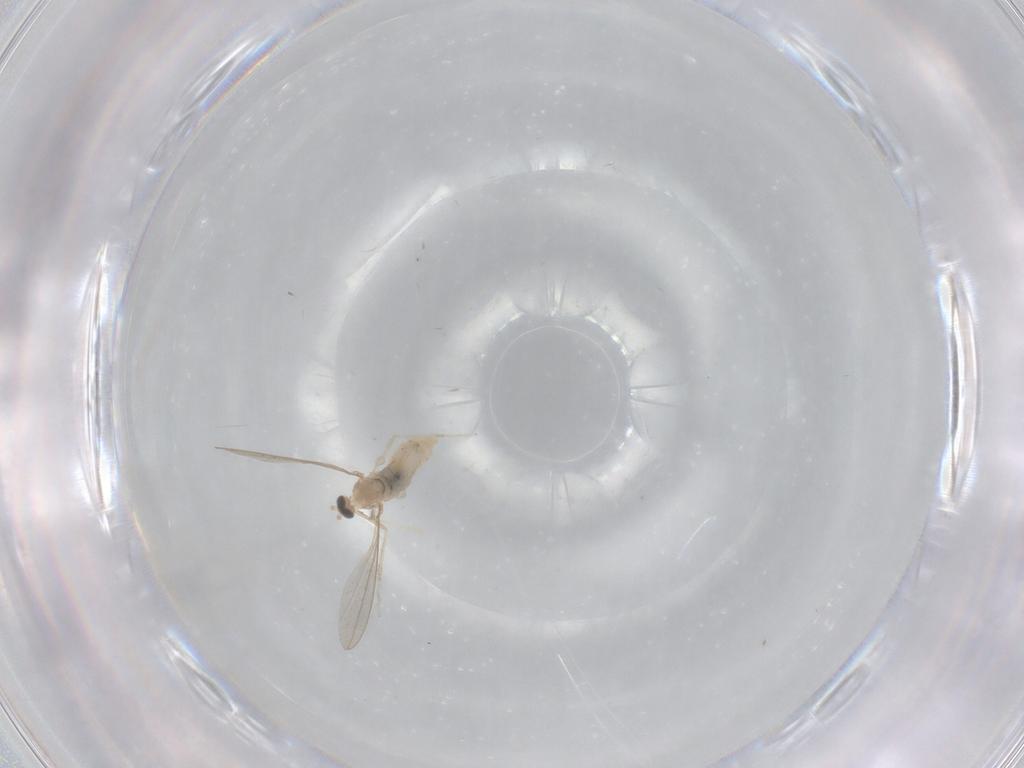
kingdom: Animalia
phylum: Arthropoda
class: Insecta
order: Diptera
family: Cecidomyiidae
